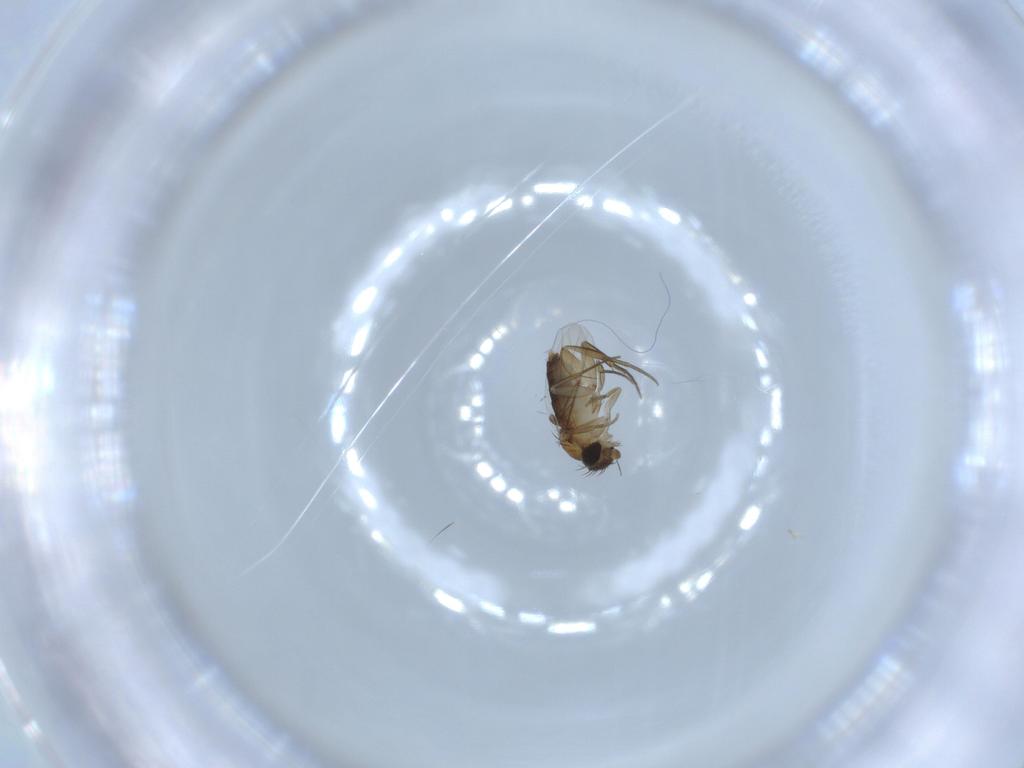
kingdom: Animalia
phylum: Arthropoda
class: Insecta
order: Diptera
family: Phoridae
